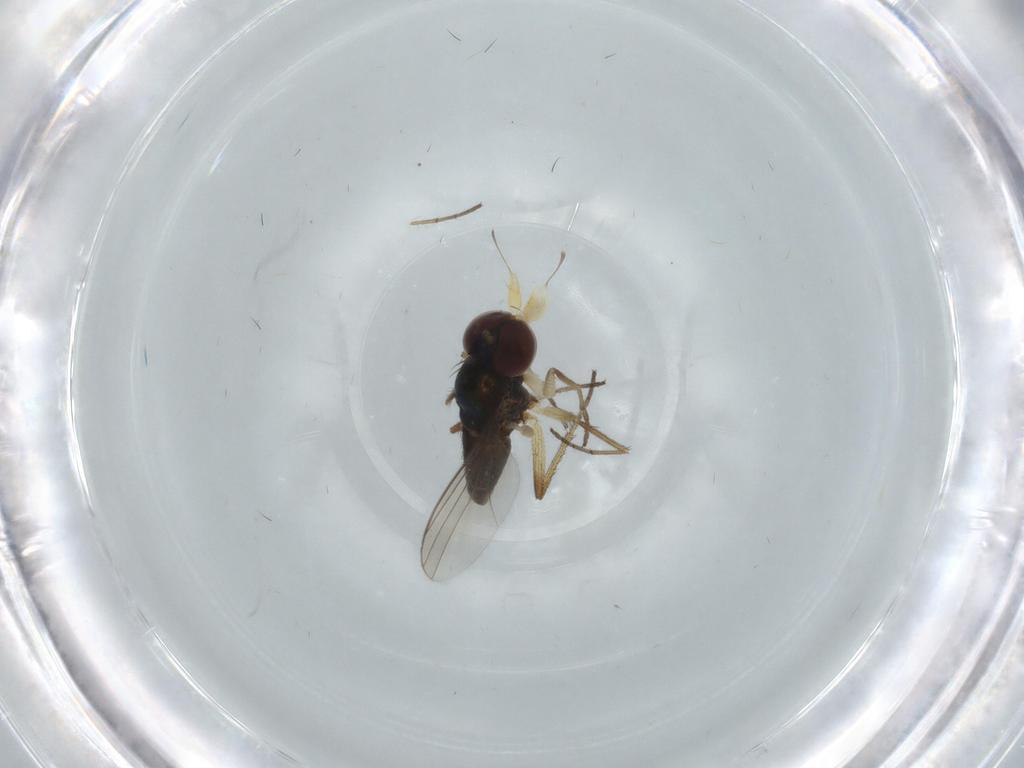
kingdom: Animalia
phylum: Arthropoda
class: Insecta
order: Diptera
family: Dolichopodidae
